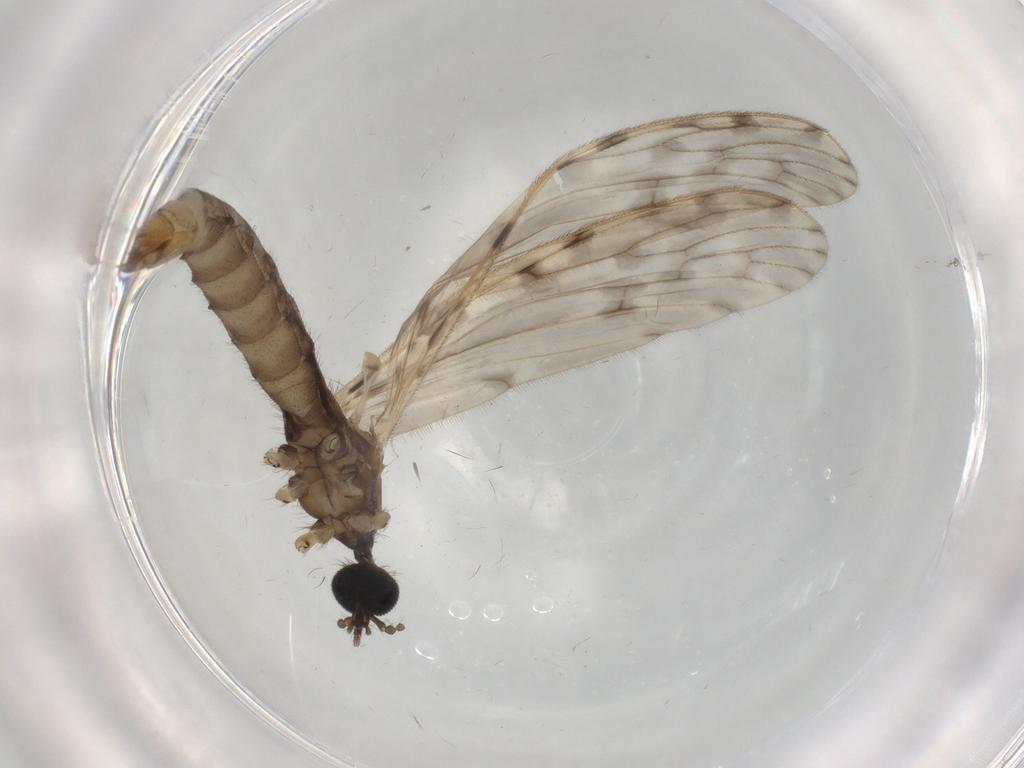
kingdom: Animalia
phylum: Arthropoda
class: Insecta
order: Diptera
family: Limoniidae
